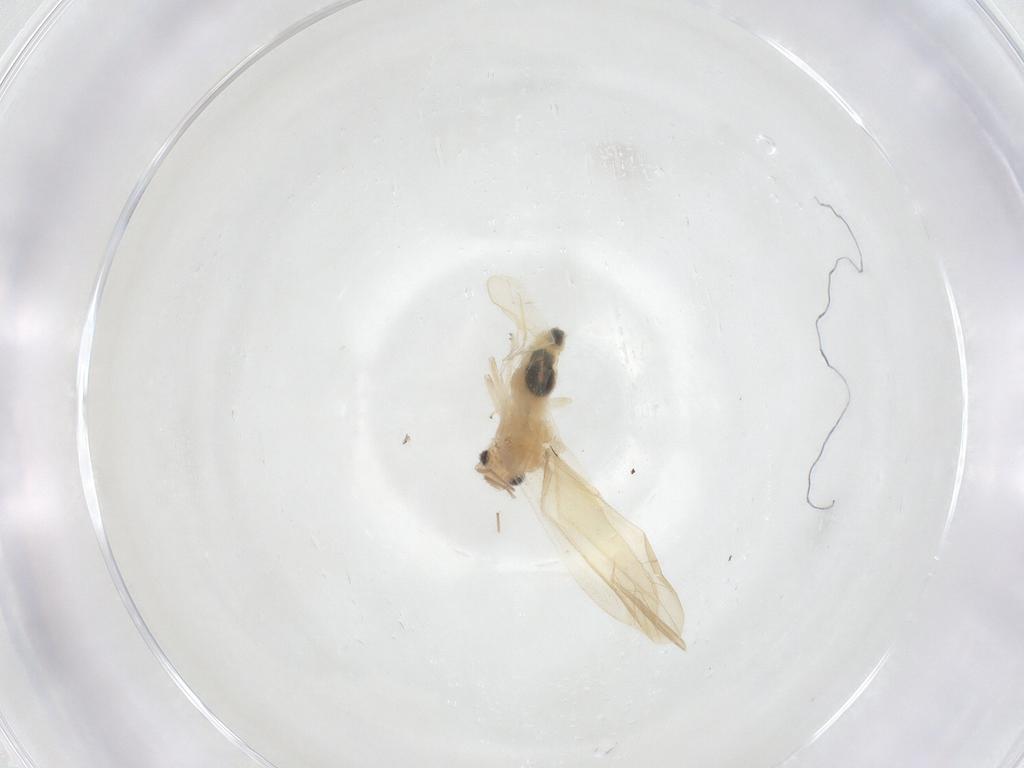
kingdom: Animalia
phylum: Arthropoda
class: Insecta
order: Psocodea
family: Caeciliusidae
